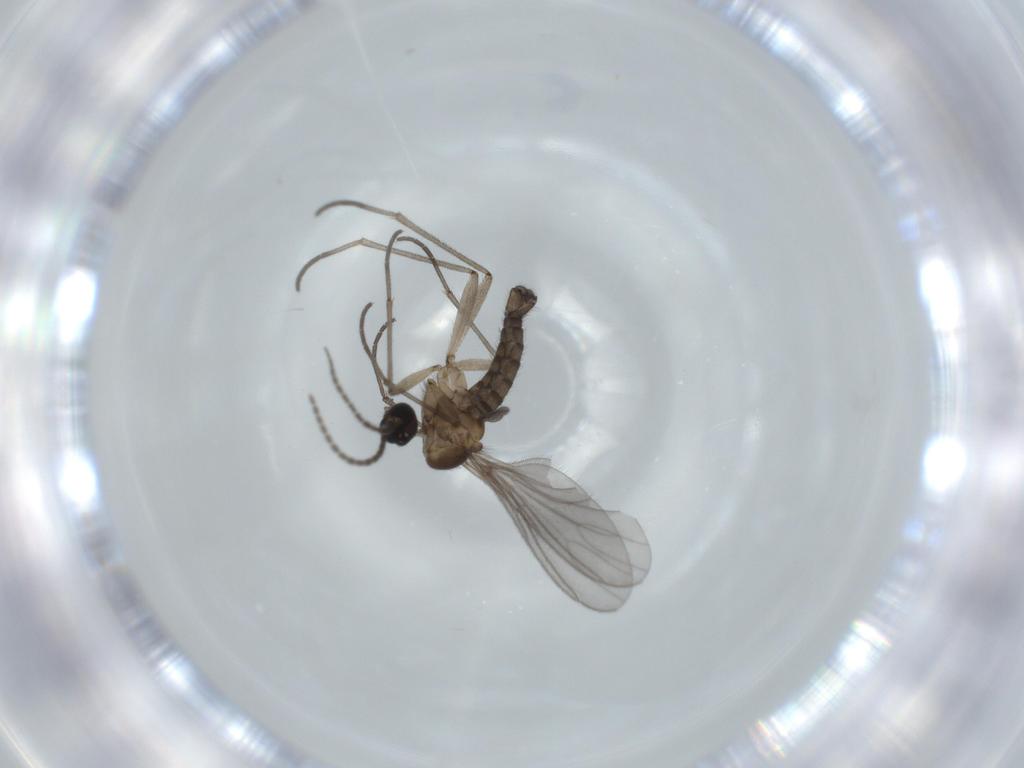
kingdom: Animalia
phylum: Arthropoda
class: Insecta
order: Diptera
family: Sciaridae
